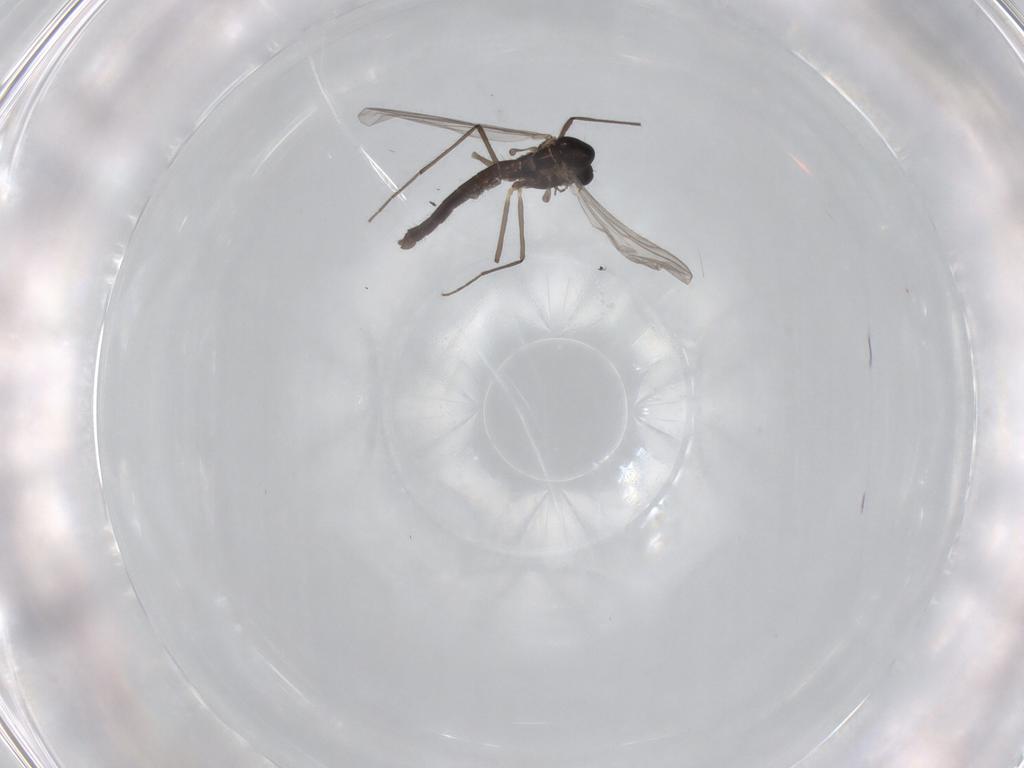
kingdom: Animalia
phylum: Arthropoda
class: Insecta
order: Diptera
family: Chironomidae
